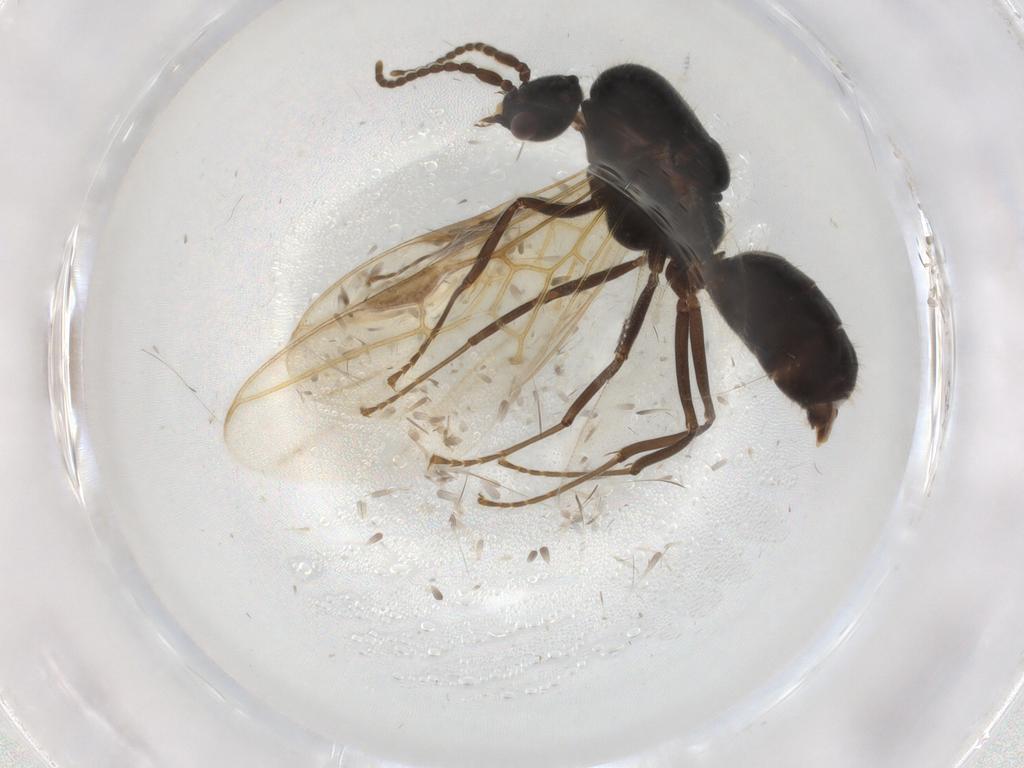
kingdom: Animalia
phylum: Arthropoda
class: Insecta
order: Hymenoptera
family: Formicidae
